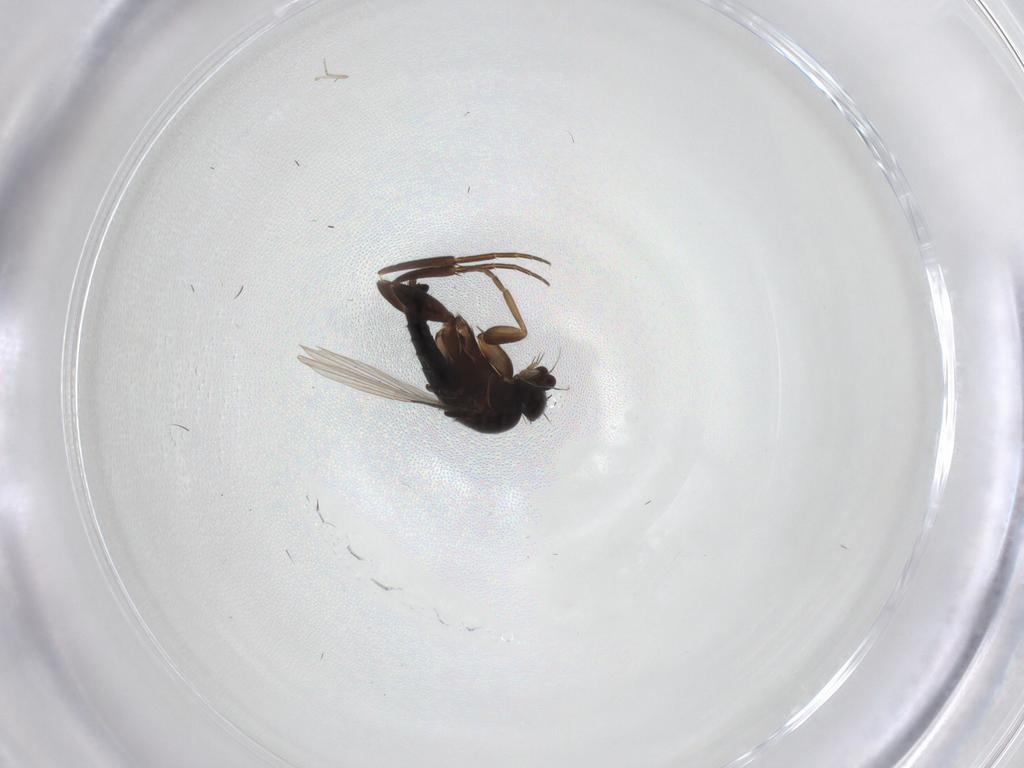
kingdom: Animalia
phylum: Arthropoda
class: Insecta
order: Diptera
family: Phoridae
